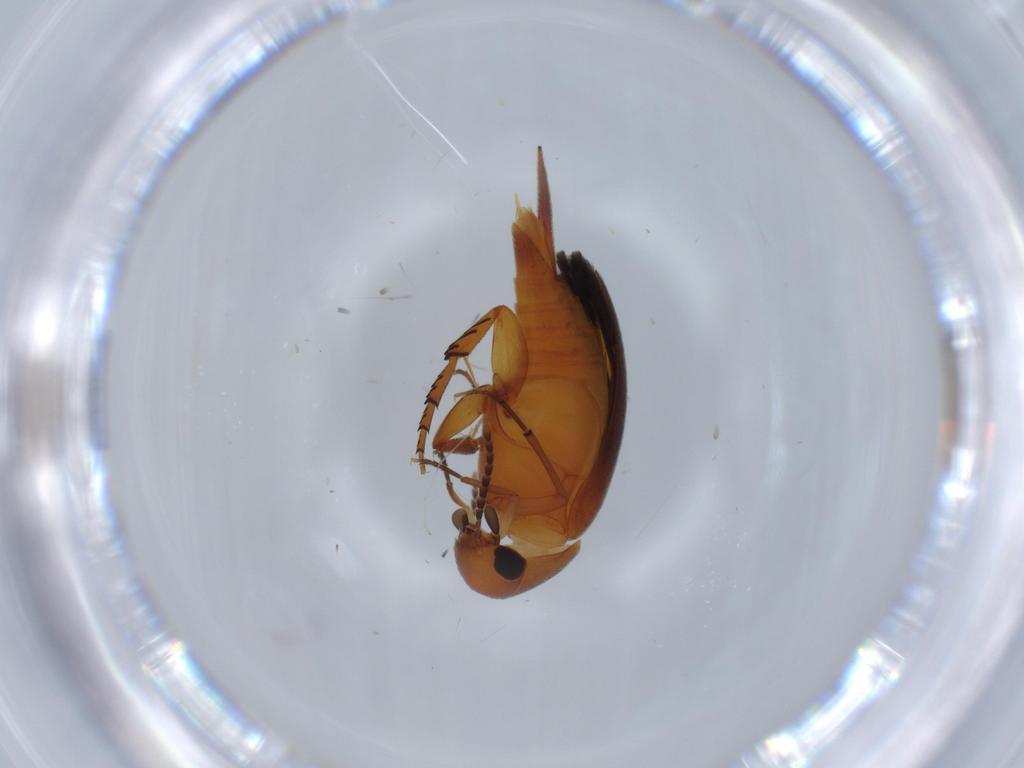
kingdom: Animalia
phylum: Arthropoda
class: Insecta
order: Coleoptera
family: Mordellidae
